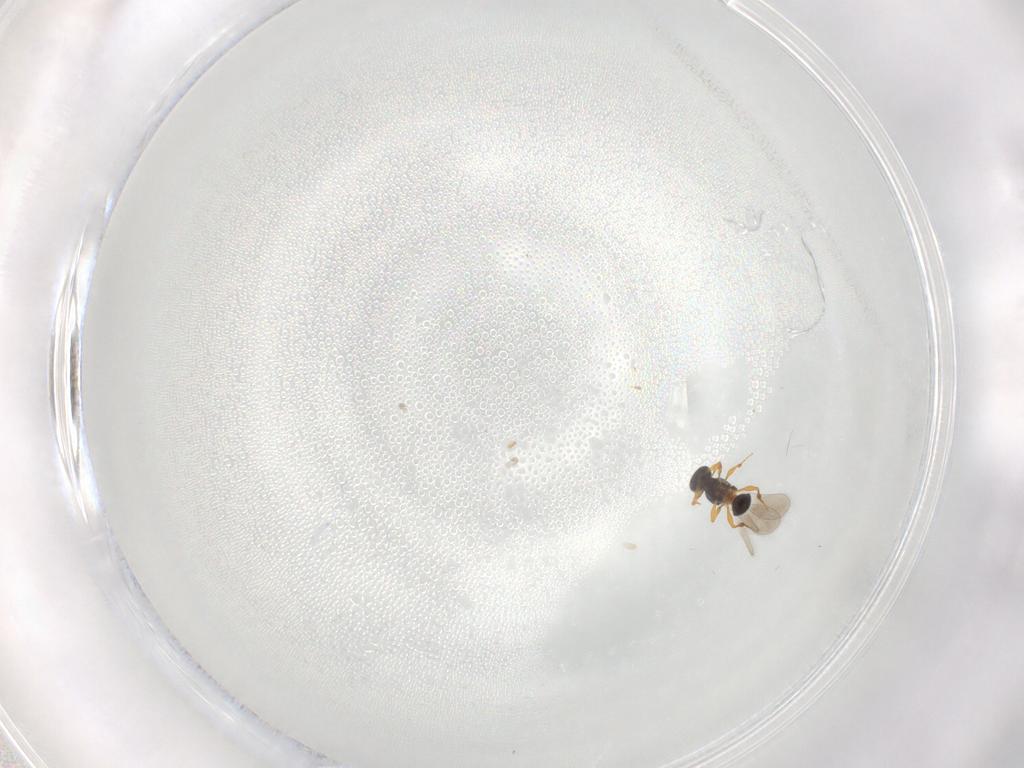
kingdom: Animalia
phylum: Arthropoda
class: Insecta
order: Hymenoptera
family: Platygastridae
